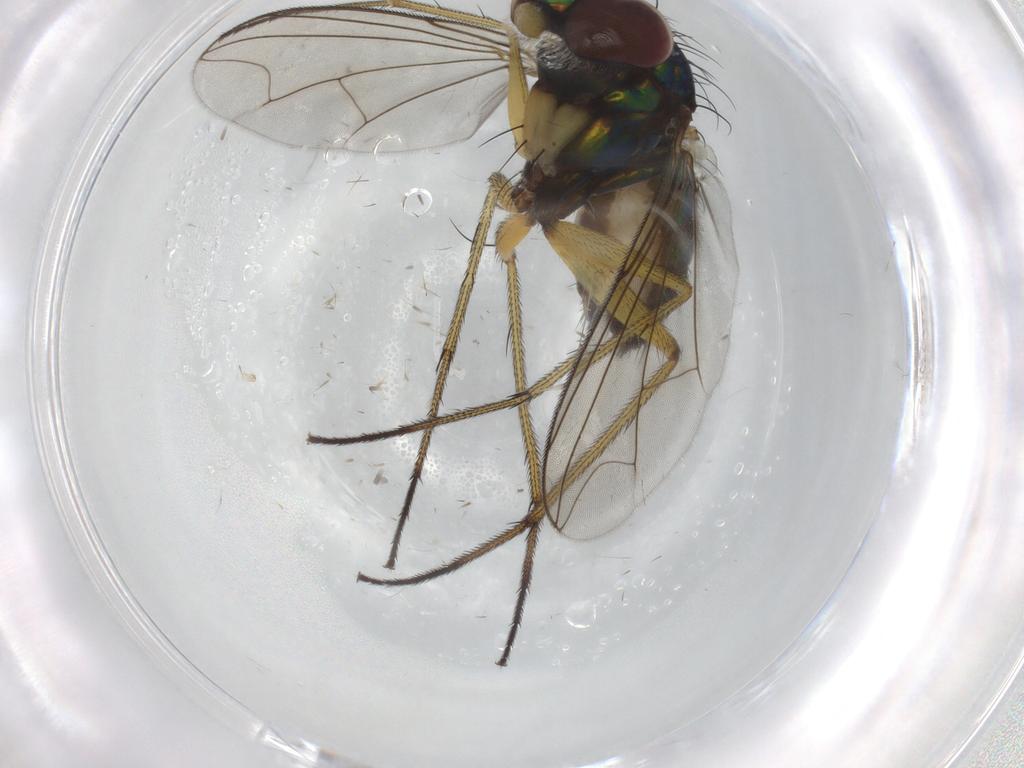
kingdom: Animalia
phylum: Arthropoda
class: Insecta
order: Diptera
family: Dolichopodidae
